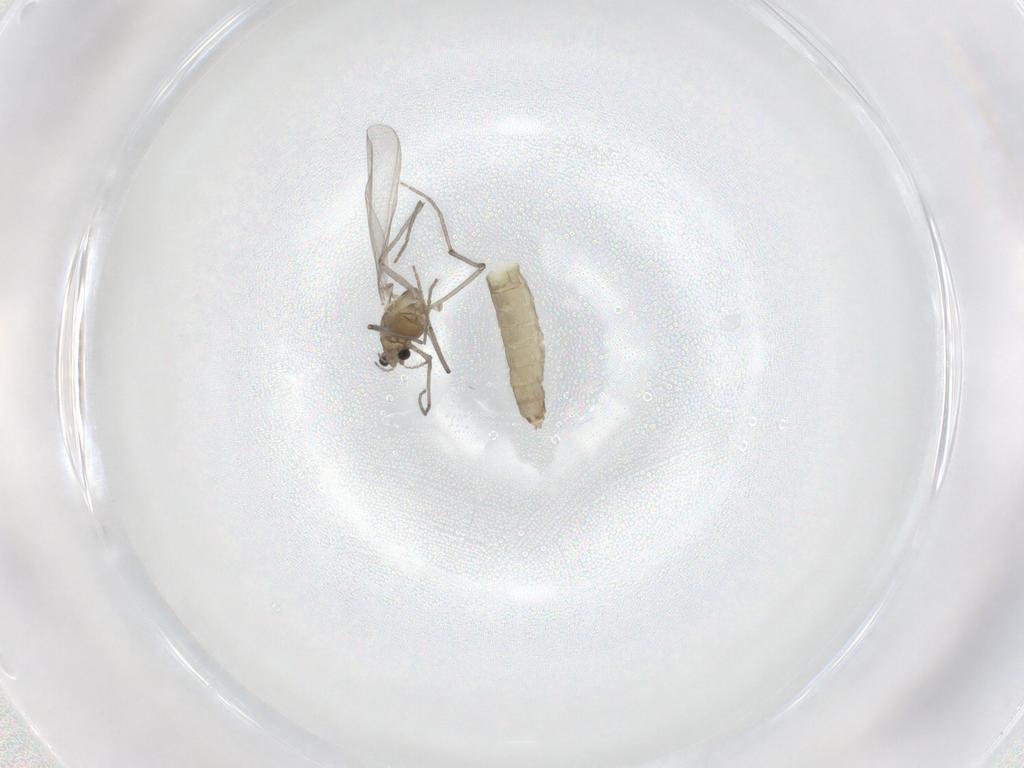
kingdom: Animalia
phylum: Arthropoda
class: Insecta
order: Diptera
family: Chironomidae
